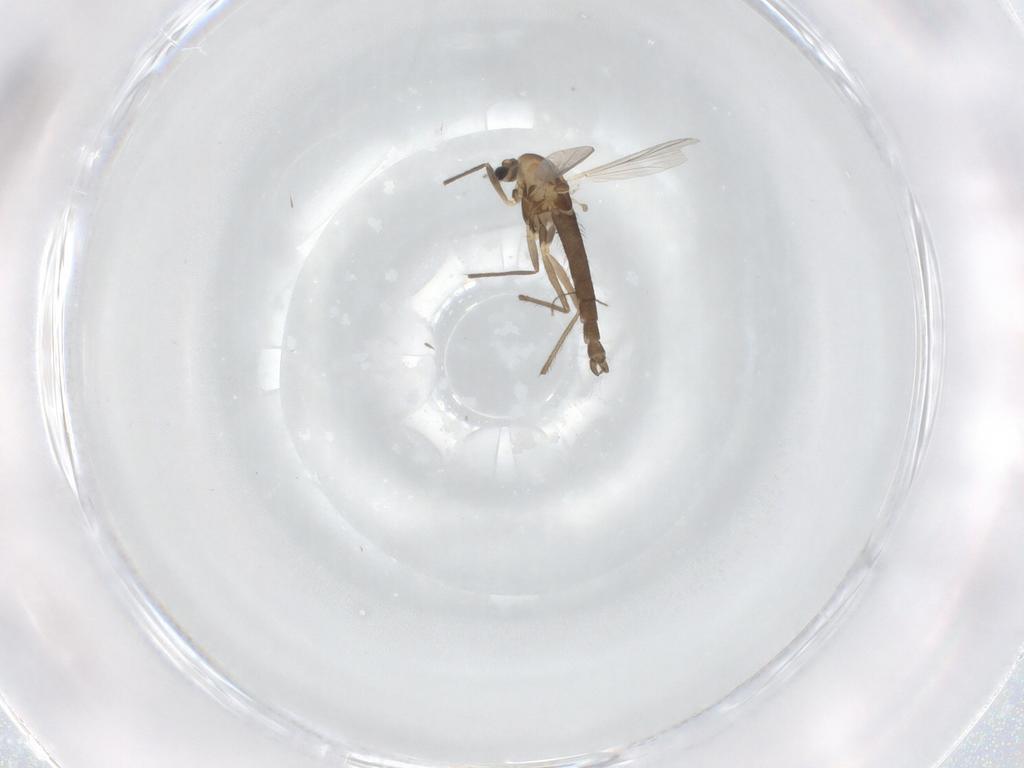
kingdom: Animalia
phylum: Arthropoda
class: Insecta
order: Diptera
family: Chironomidae
